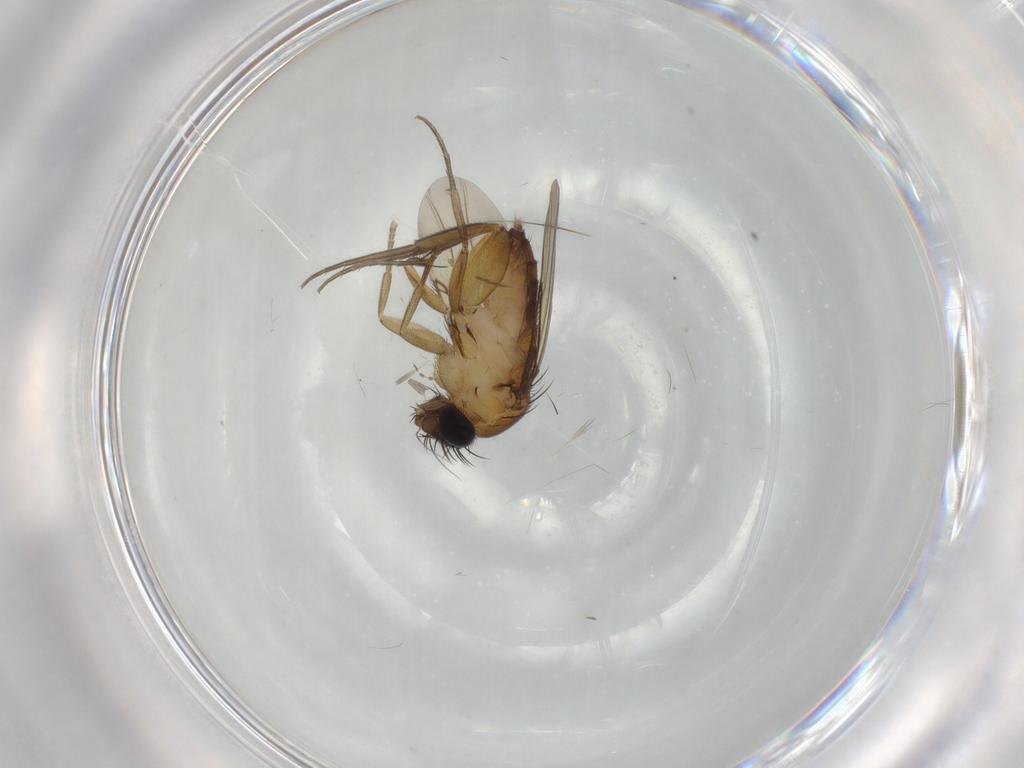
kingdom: Animalia
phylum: Arthropoda
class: Insecta
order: Diptera
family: Phoridae
